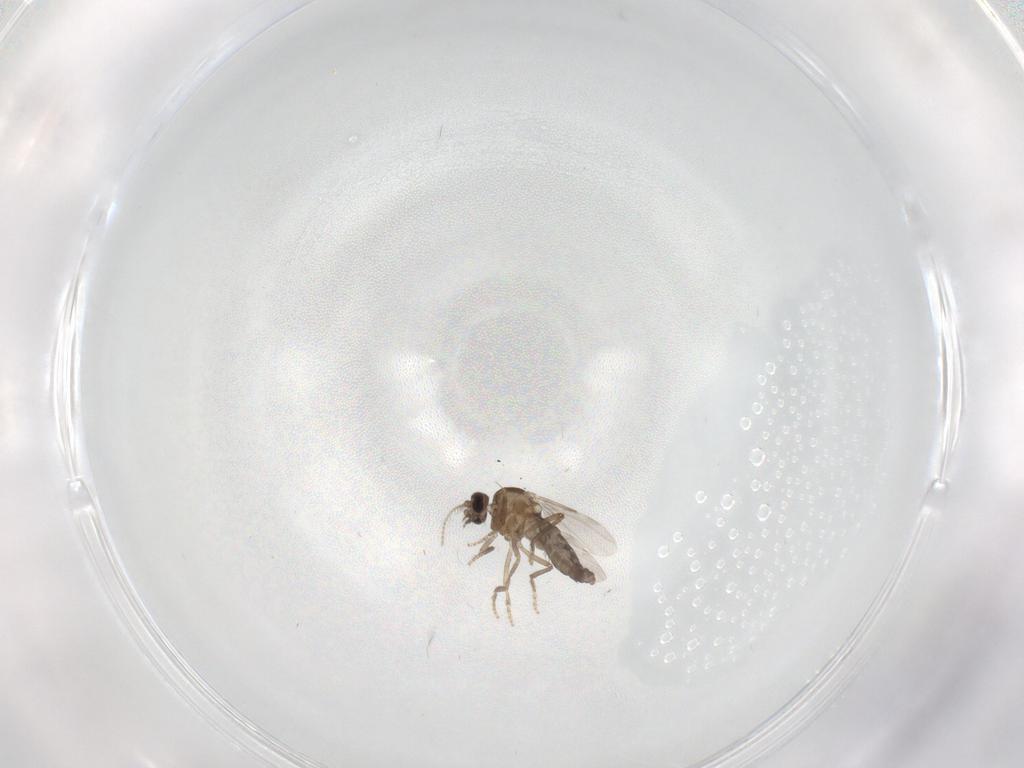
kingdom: Animalia
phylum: Arthropoda
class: Insecta
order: Diptera
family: Ceratopogonidae
